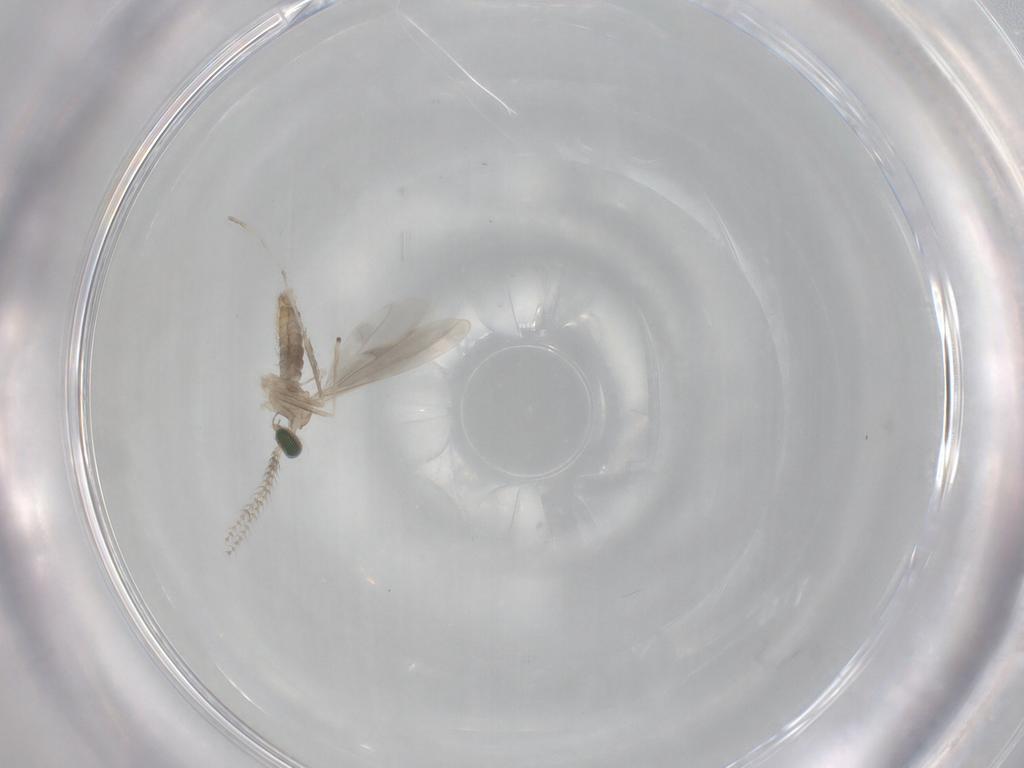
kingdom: Animalia
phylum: Arthropoda
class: Insecta
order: Diptera
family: Cecidomyiidae
